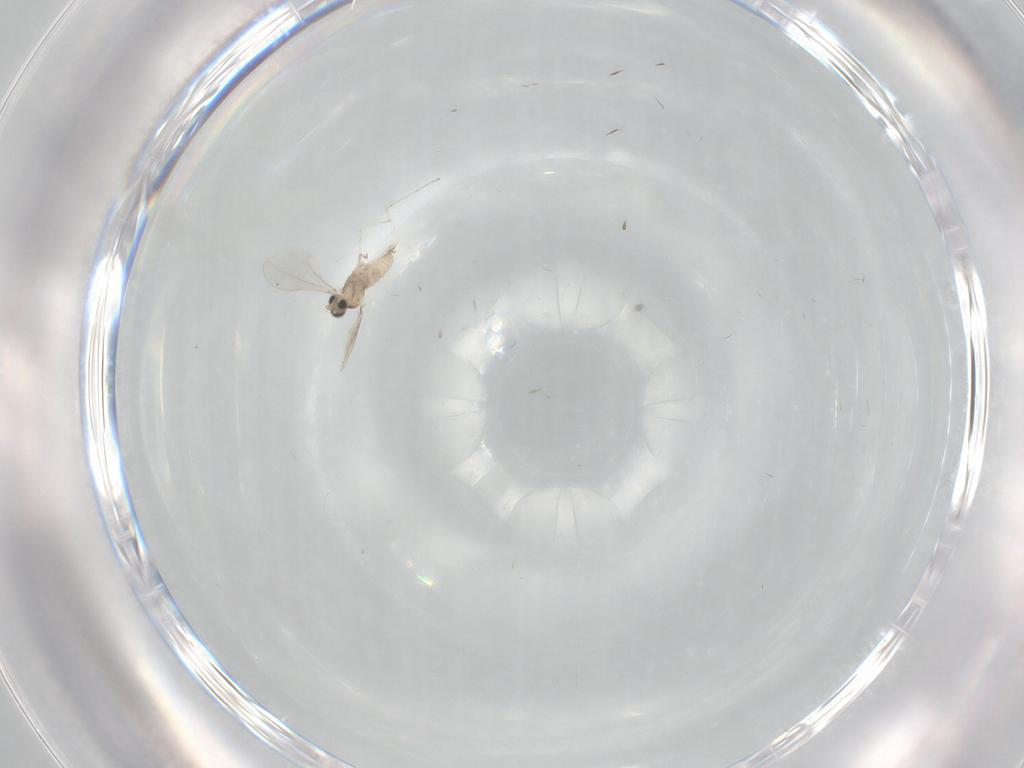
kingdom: Animalia
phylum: Arthropoda
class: Insecta
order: Diptera
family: Cecidomyiidae
